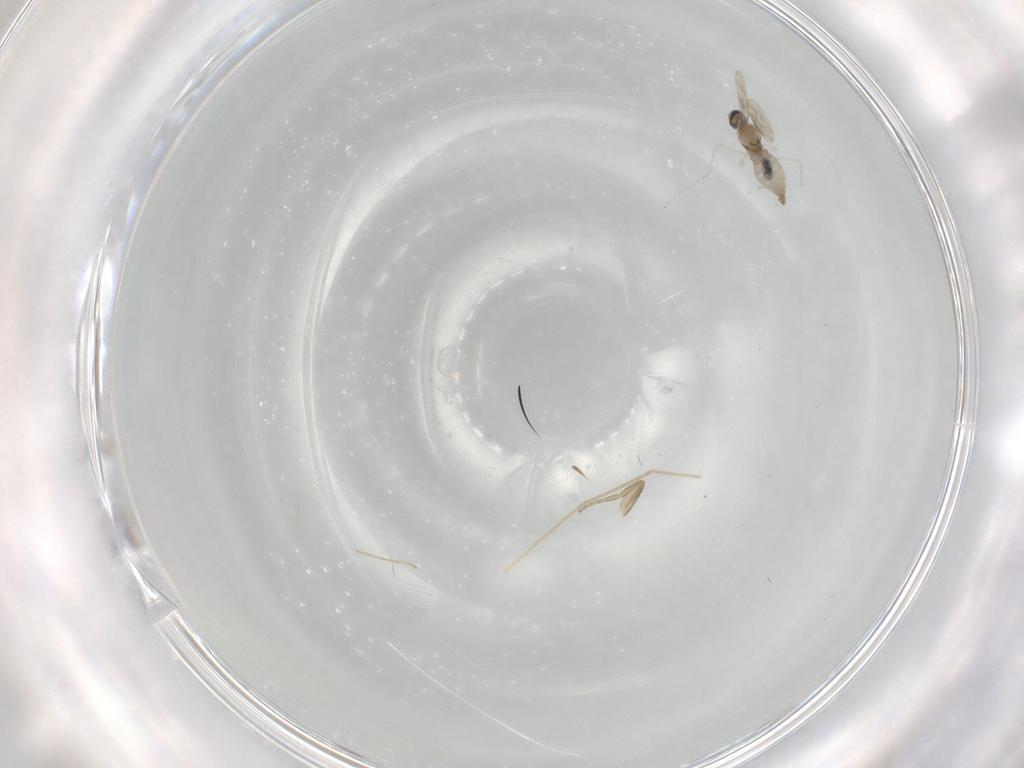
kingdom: Animalia
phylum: Arthropoda
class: Insecta
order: Diptera
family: Phoridae
